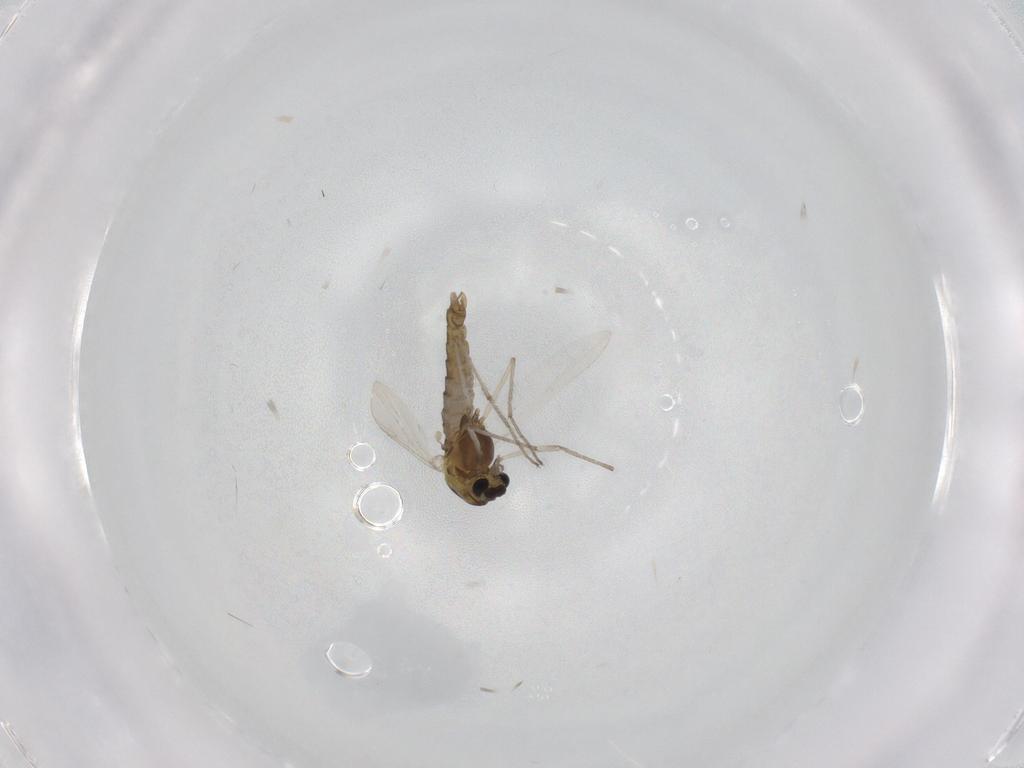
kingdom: Animalia
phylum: Arthropoda
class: Insecta
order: Diptera
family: Chironomidae
